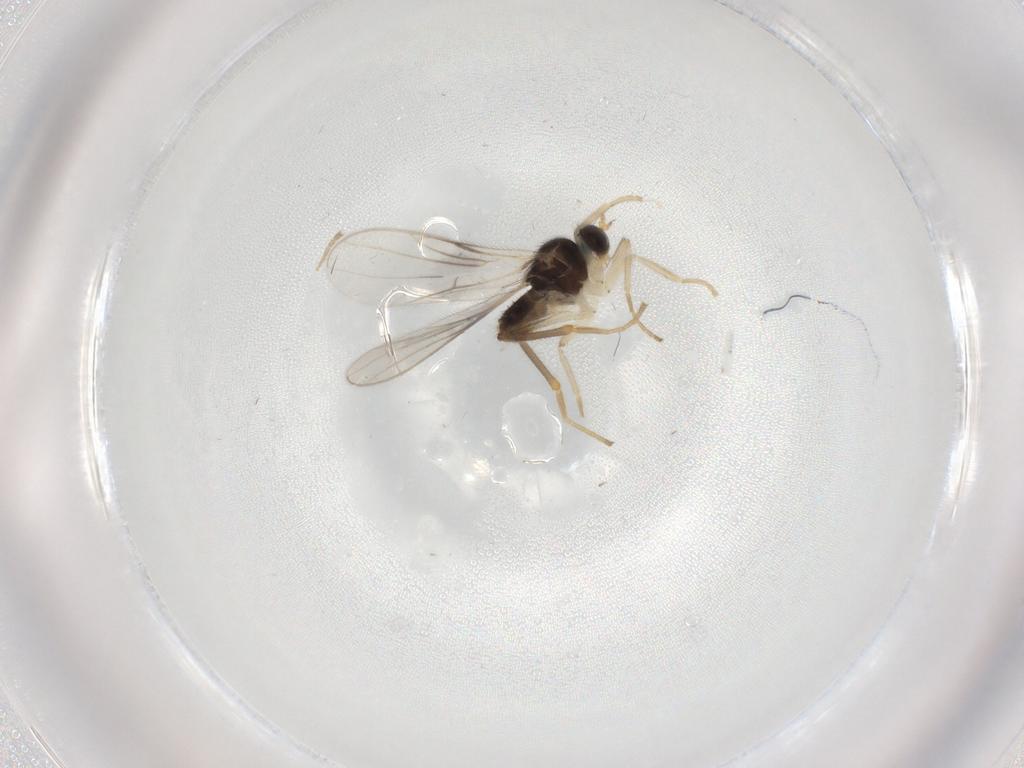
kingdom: Animalia
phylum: Arthropoda
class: Insecta
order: Diptera
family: Hybotidae
